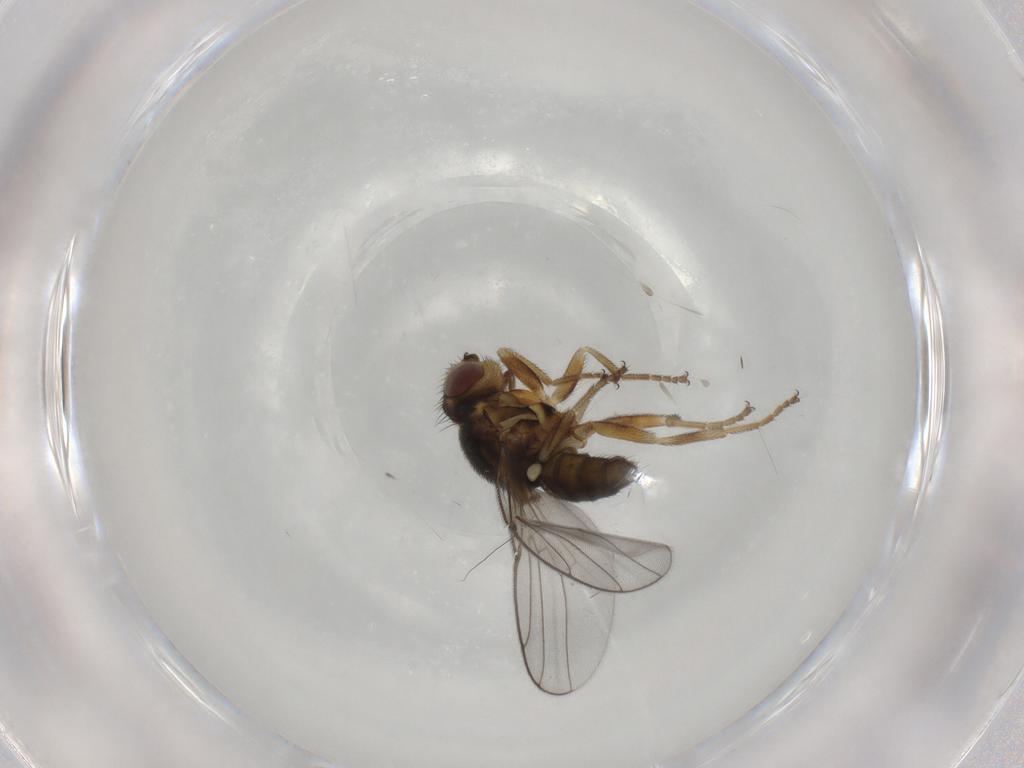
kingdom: Animalia
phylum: Arthropoda
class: Insecta
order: Diptera
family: Chloropidae
